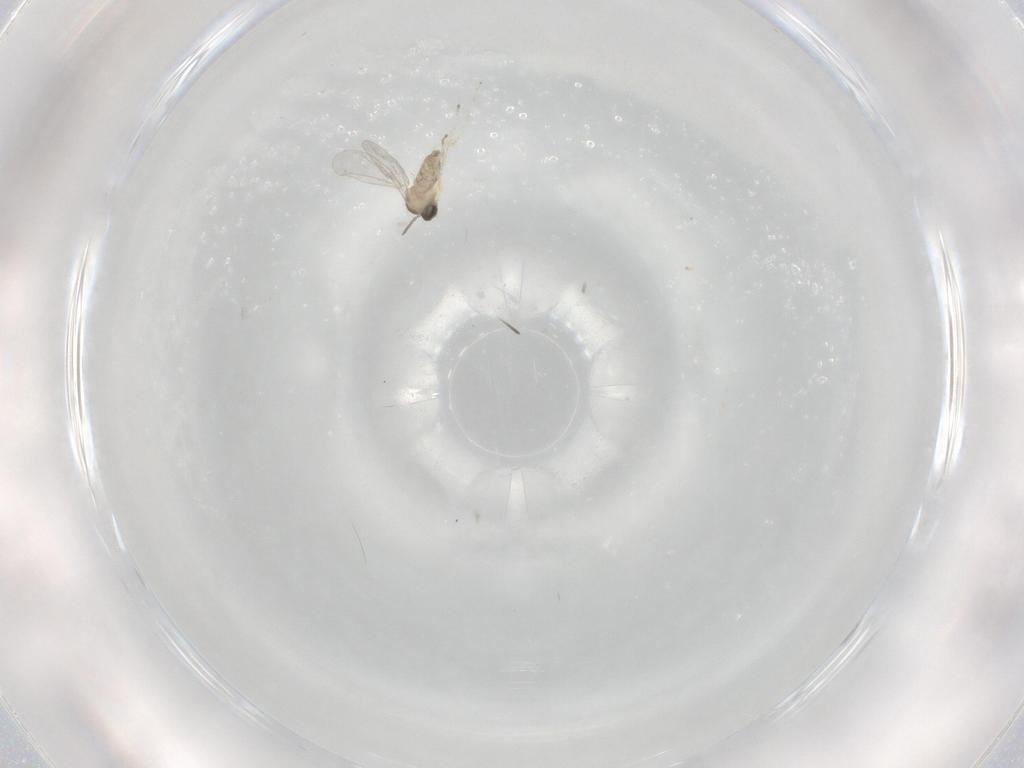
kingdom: Animalia
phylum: Arthropoda
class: Insecta
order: Diptera
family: Cecidomyiidae
